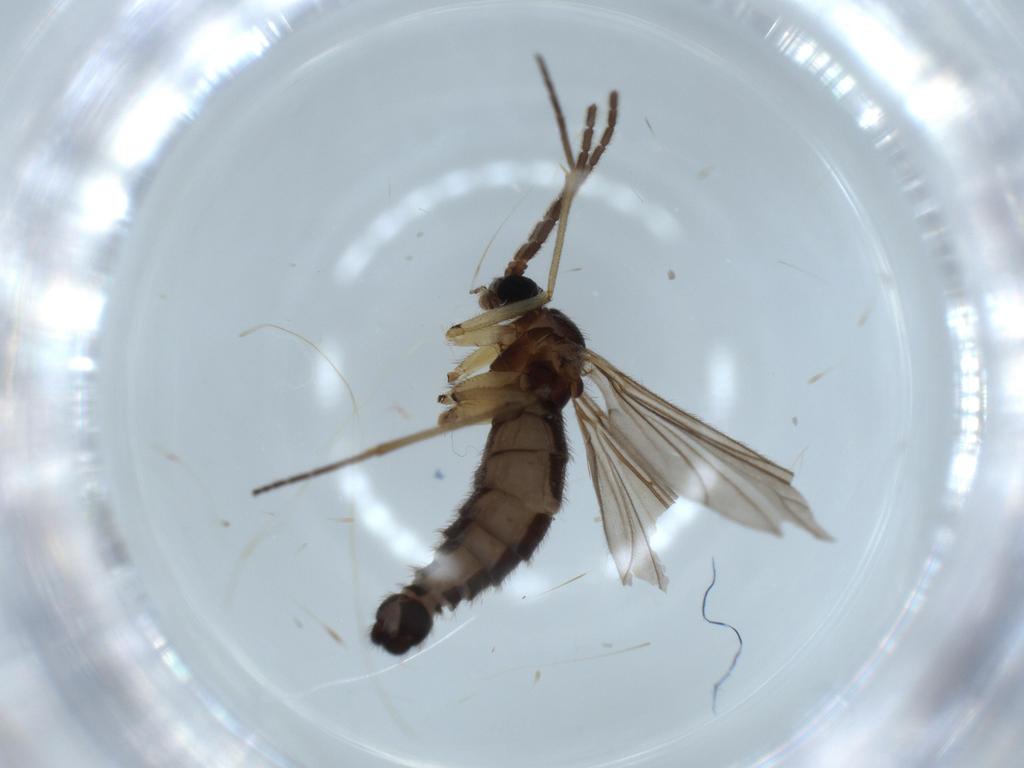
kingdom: Animalia
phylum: Arthropoda
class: Insecta
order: Diptera
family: Sciaridae
